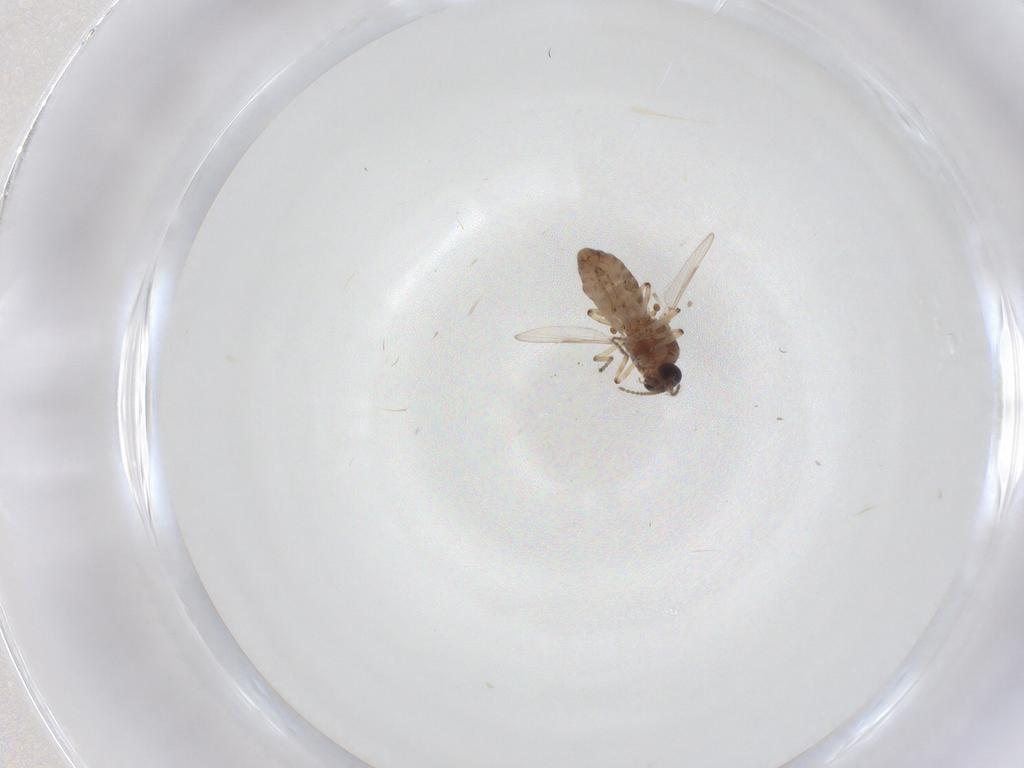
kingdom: Animalia
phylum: Arthropoda
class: Insecta
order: Diptera
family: Ceratopogonidae
